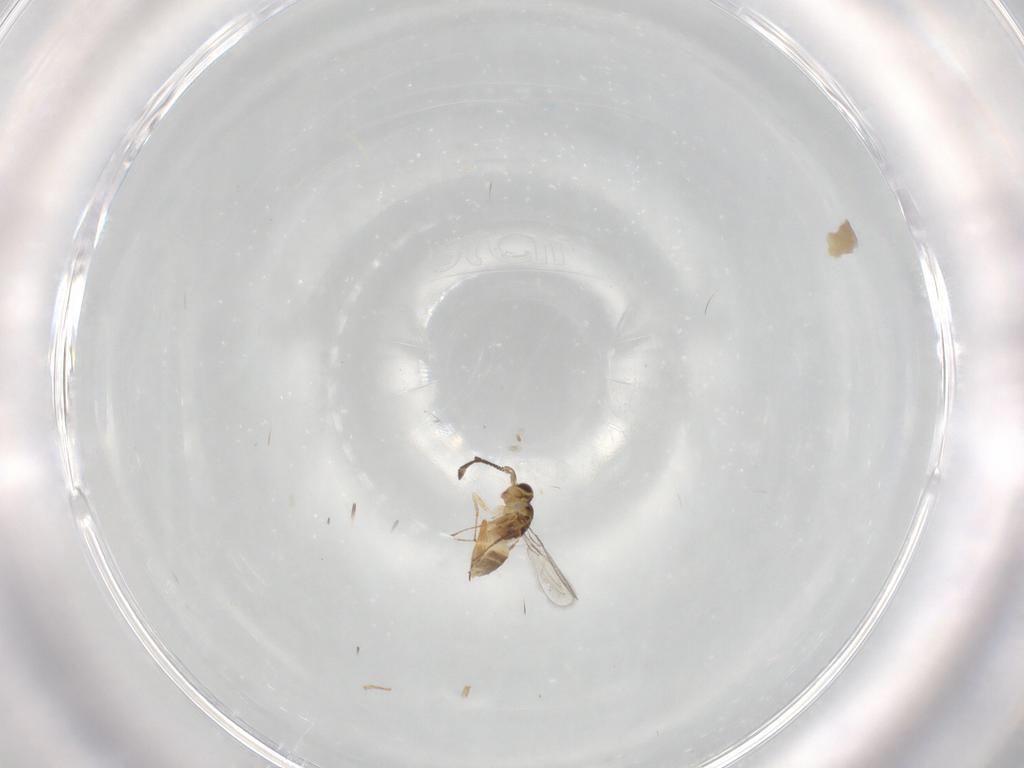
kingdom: Animalia
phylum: Arthropoda
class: Insecta
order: Hymenoptera
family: Mymaridae
